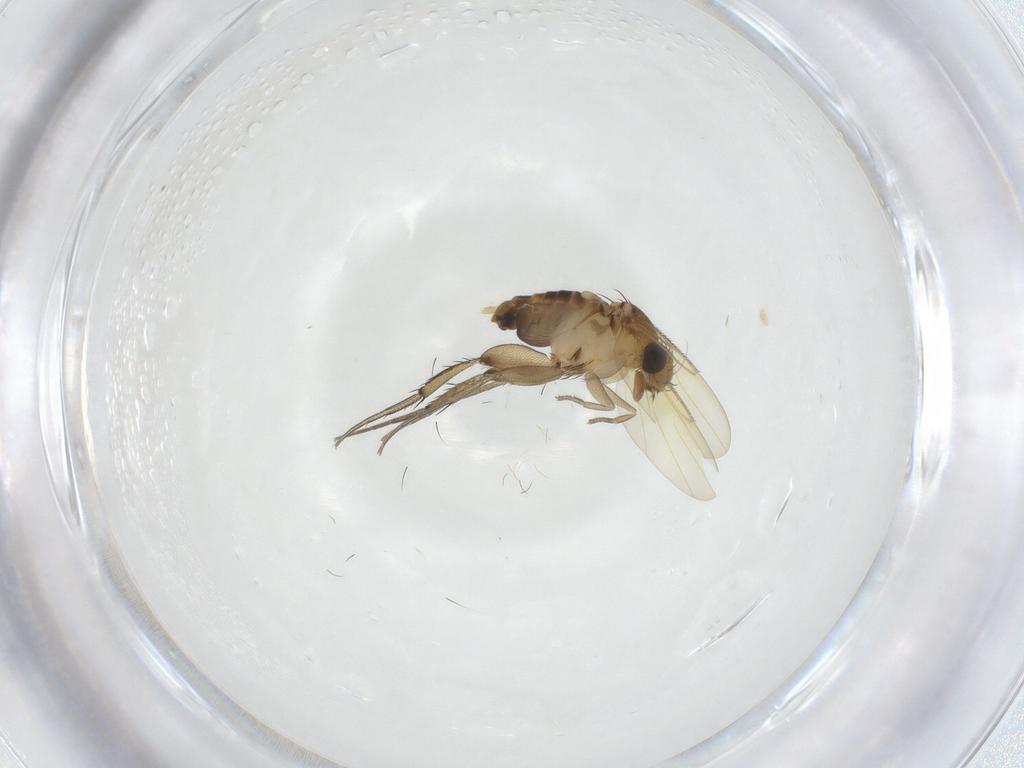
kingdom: Animalia
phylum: Arthropoda
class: Insecta
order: Diptera
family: Phoridae
